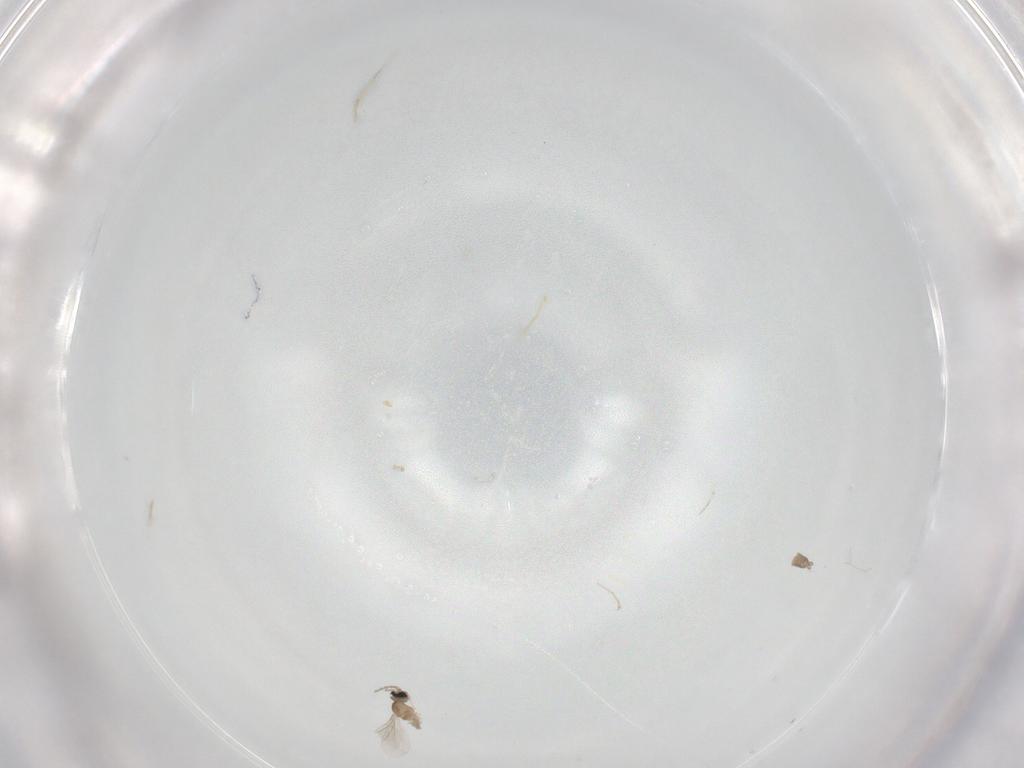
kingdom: Animalia
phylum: Arthropoda
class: Insecta
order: Diptera
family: Cecidomyiidae
